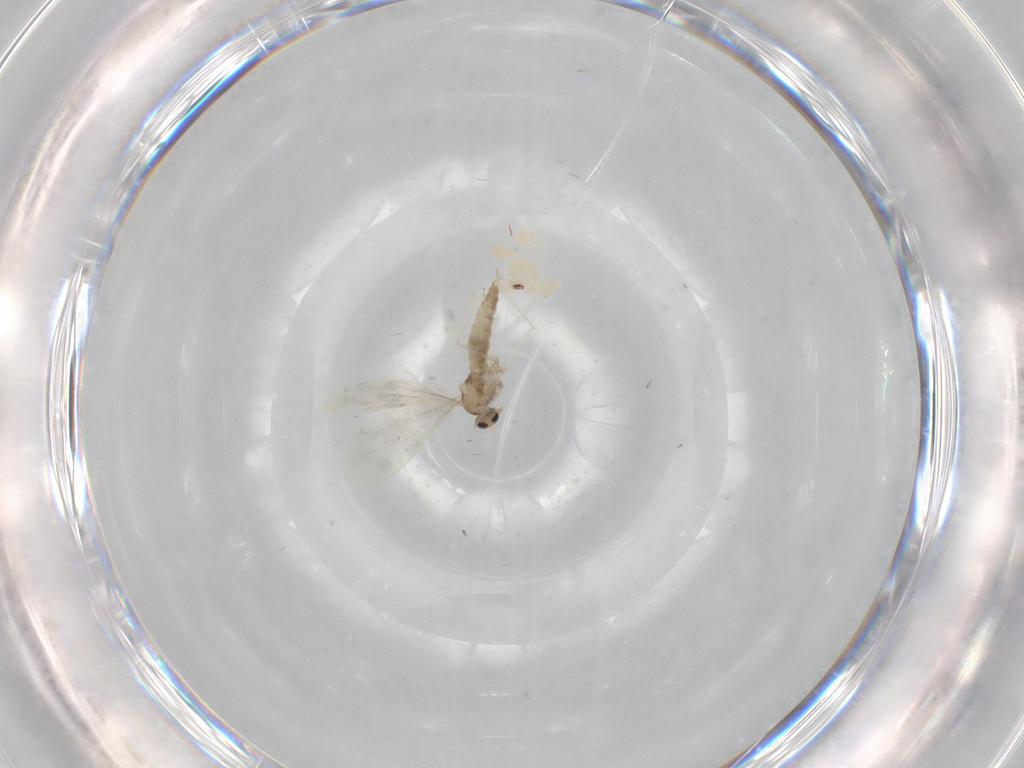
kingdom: Animalia
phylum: Arthropoda
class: Insecta
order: Diptera
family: Cecidomyiidae
